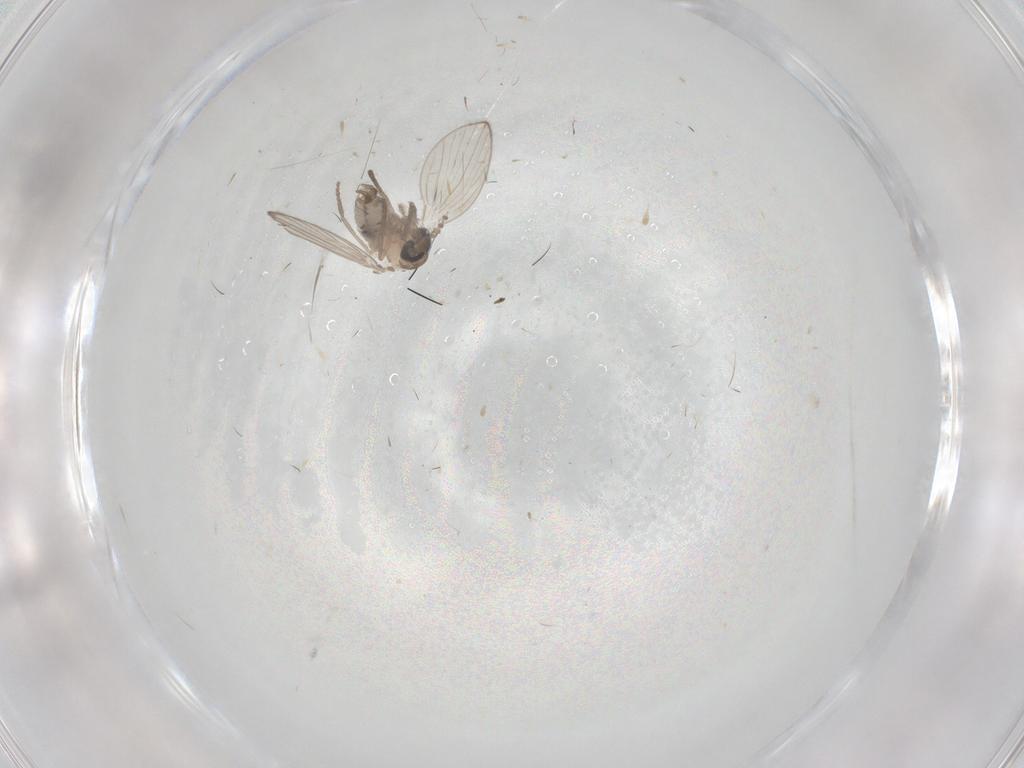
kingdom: Animalia
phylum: Arthropoda
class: Insecta
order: Diptera
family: Psychodidae
